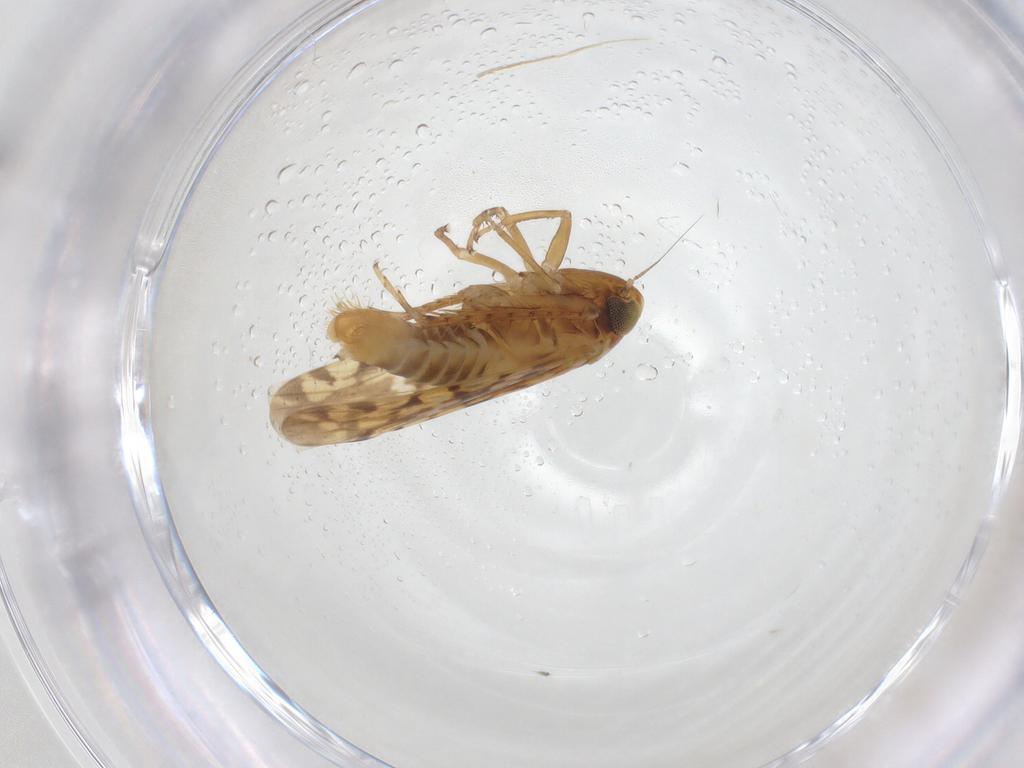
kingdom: Animalia
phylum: Arthropoda
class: Insecta
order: Hemiptera
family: Cicadellidae
